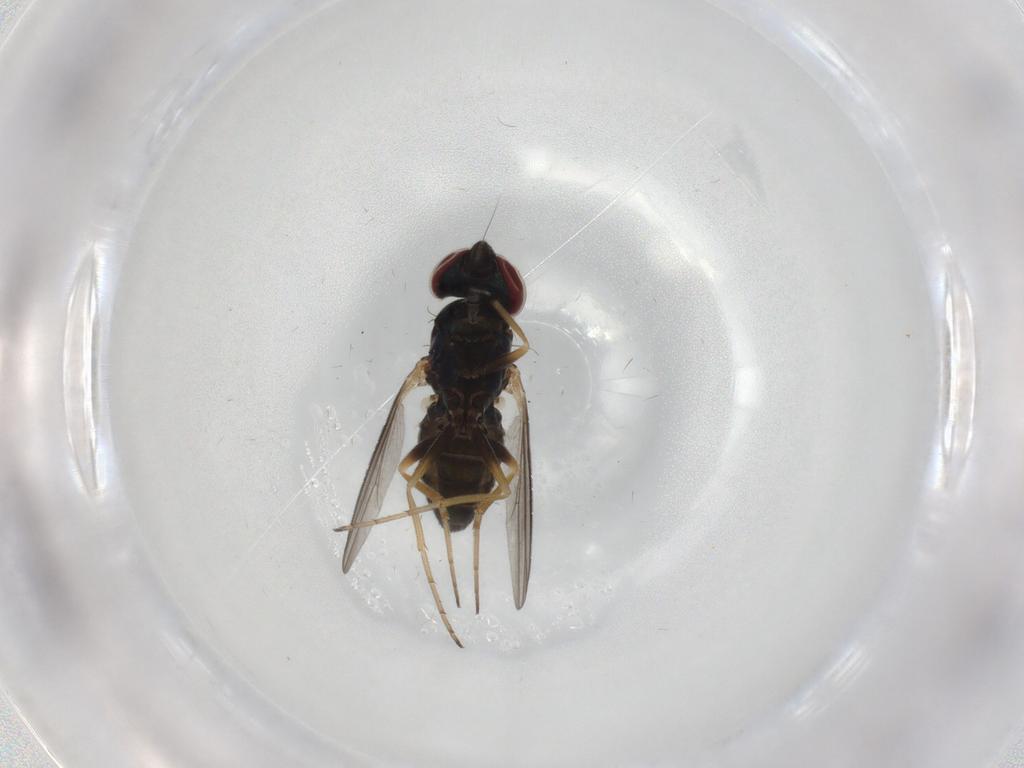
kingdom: Animalia
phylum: Arthropoda
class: Insecta
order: Diptera
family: Dolichopodidae
